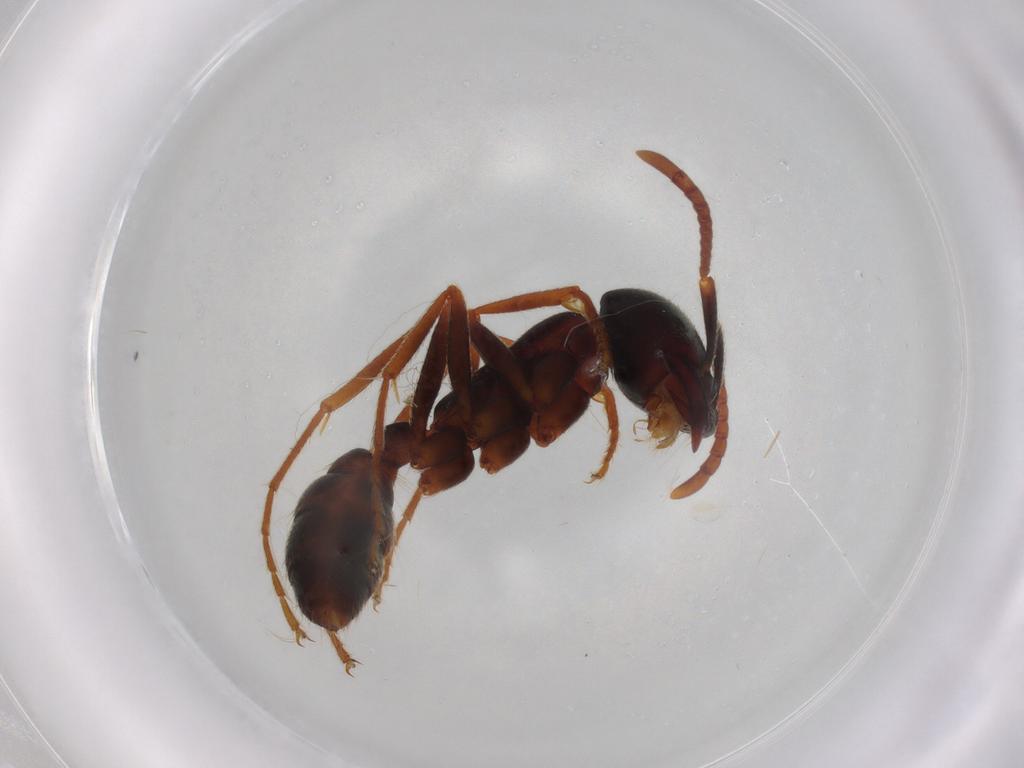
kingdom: Animalia
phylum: Arthropoda
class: Insecta
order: Hymenoptera
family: Formicidae
